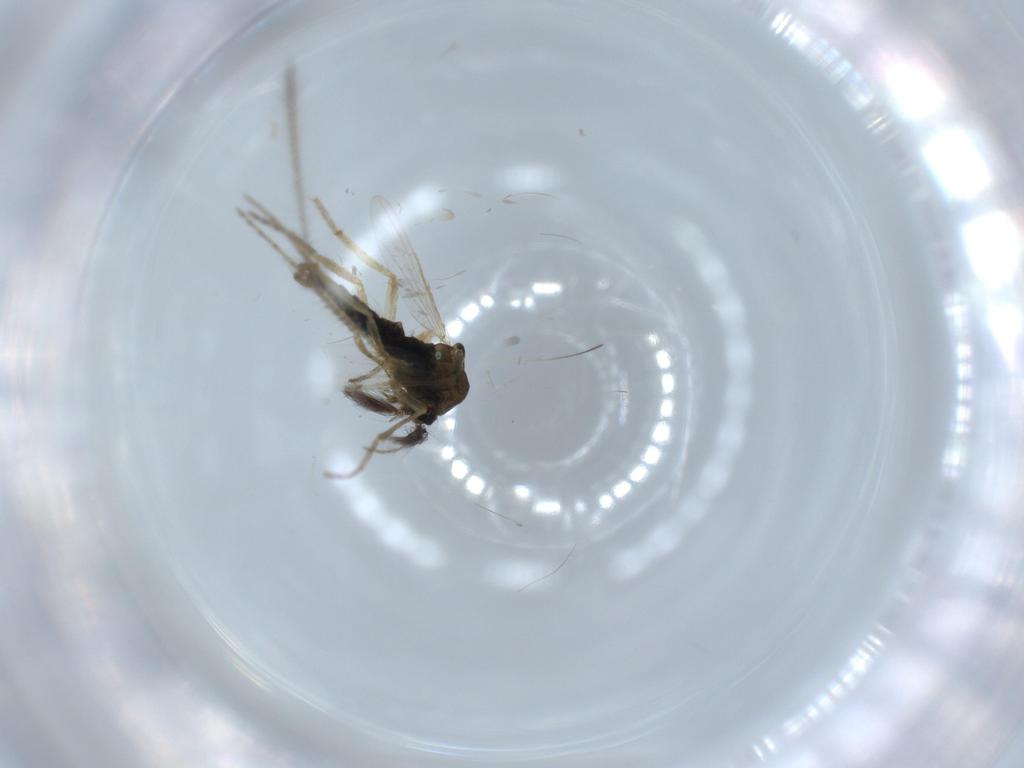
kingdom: Animalia
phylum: Arthropoda
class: Insecta
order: Diptera
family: Ceratopogonidae
